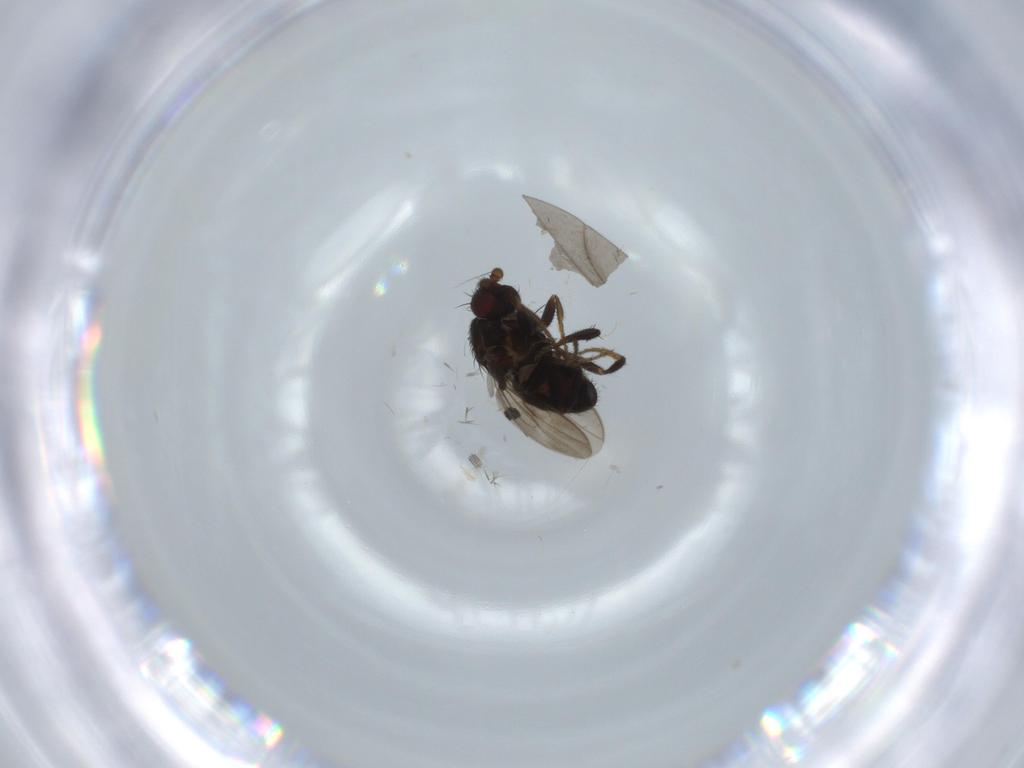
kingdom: Animalia
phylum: Arthropoda
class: Insecta
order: Diptera
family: Sphaeroceridae
